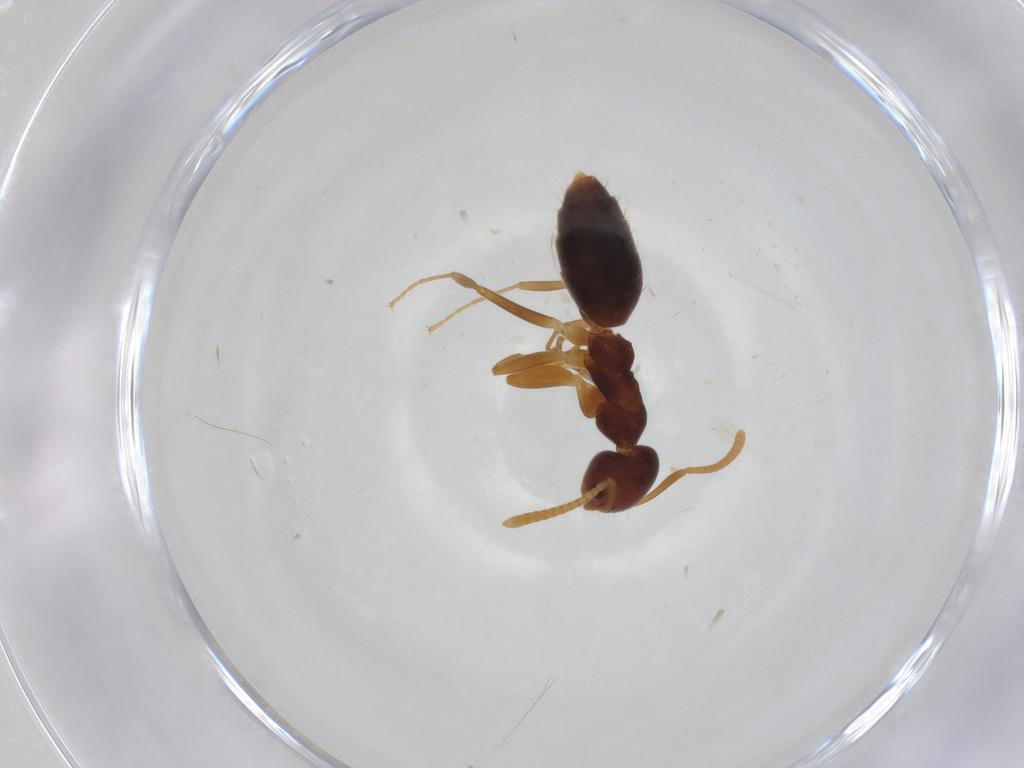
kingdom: Animalia
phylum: Arthropoda
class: Insecta
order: Hymenoptera
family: Formicidae
